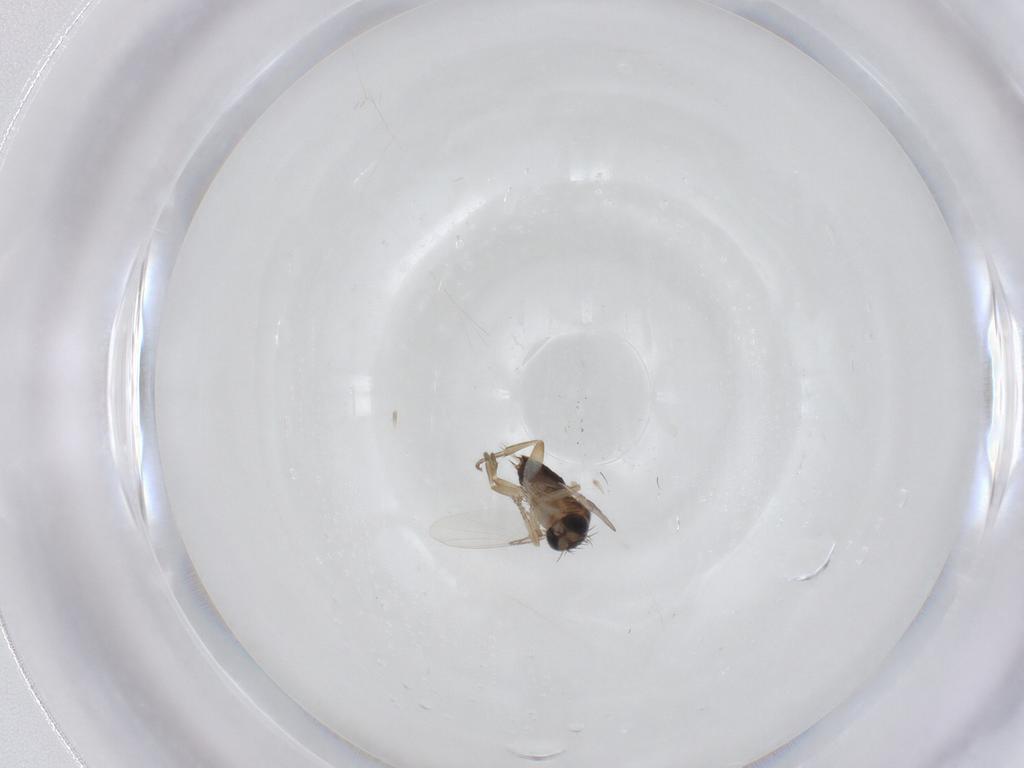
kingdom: Animalia
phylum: Arthropoda
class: Insecta
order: Diptera
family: Phoridae
